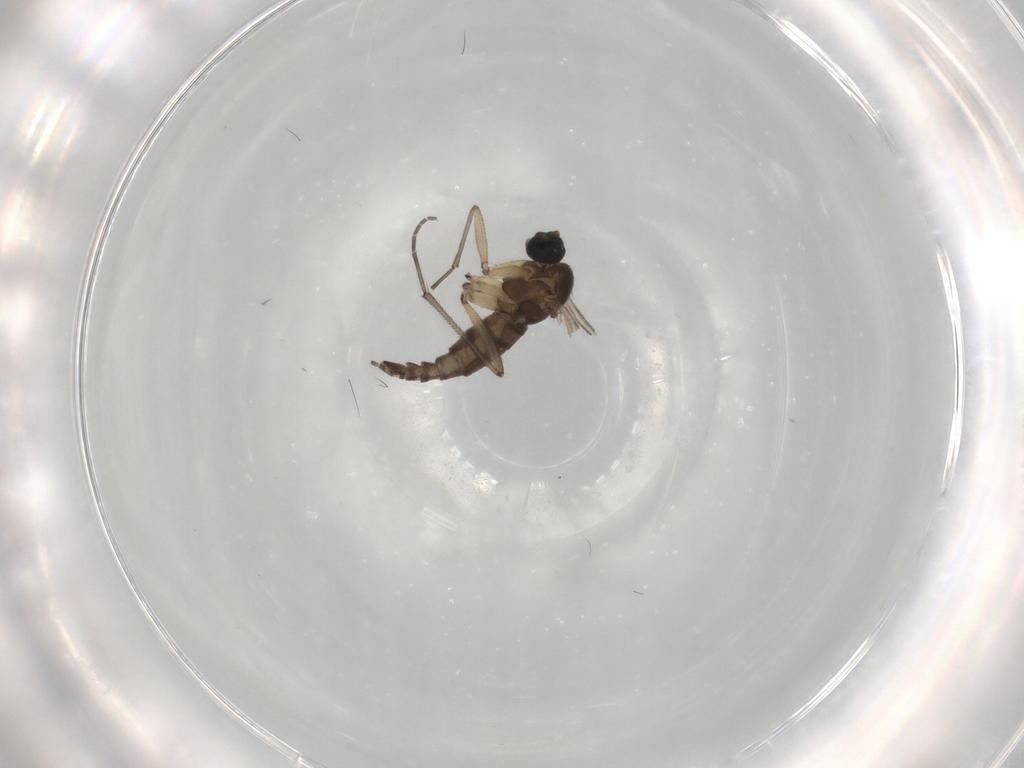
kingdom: Animalia
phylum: Arthropoda
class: Insecta
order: Diptera
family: Sciaridae
